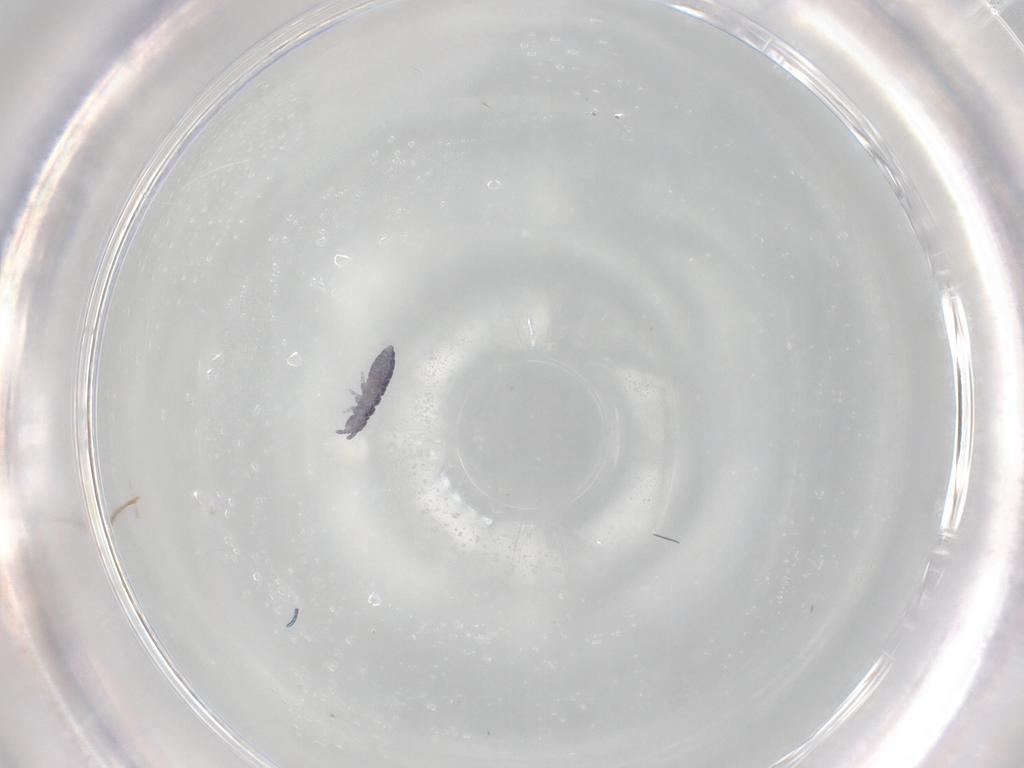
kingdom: Animalia
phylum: Arthropoda
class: Collembola
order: Poduromorpha
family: Hypogastruridae
